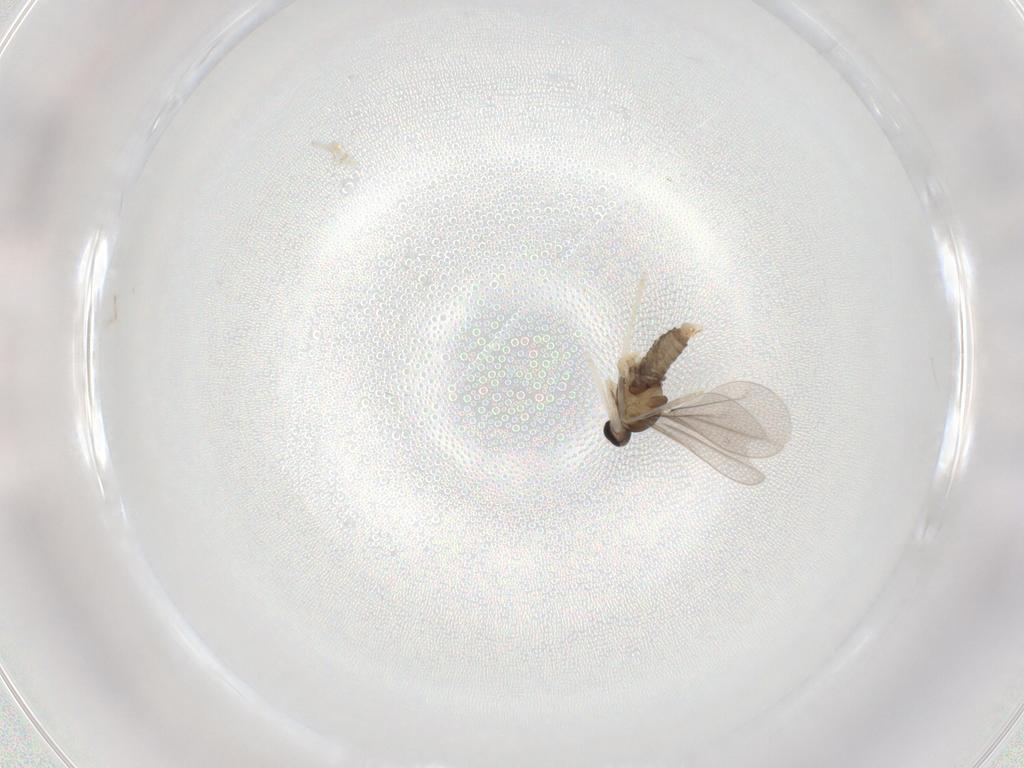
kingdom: Animalia
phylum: Arthropoda
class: Insecta
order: Diptera
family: Cecidomyiidae
